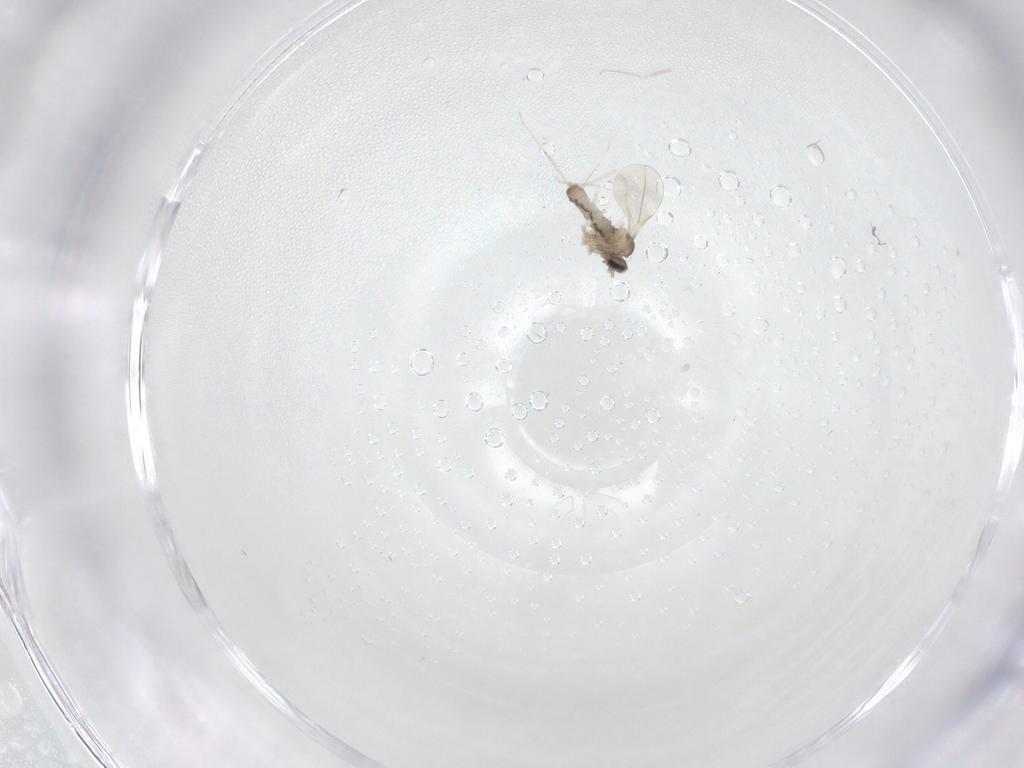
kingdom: Animalia
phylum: Arthropoda
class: Insecta
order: Diptera
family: Cecidomyiidae
